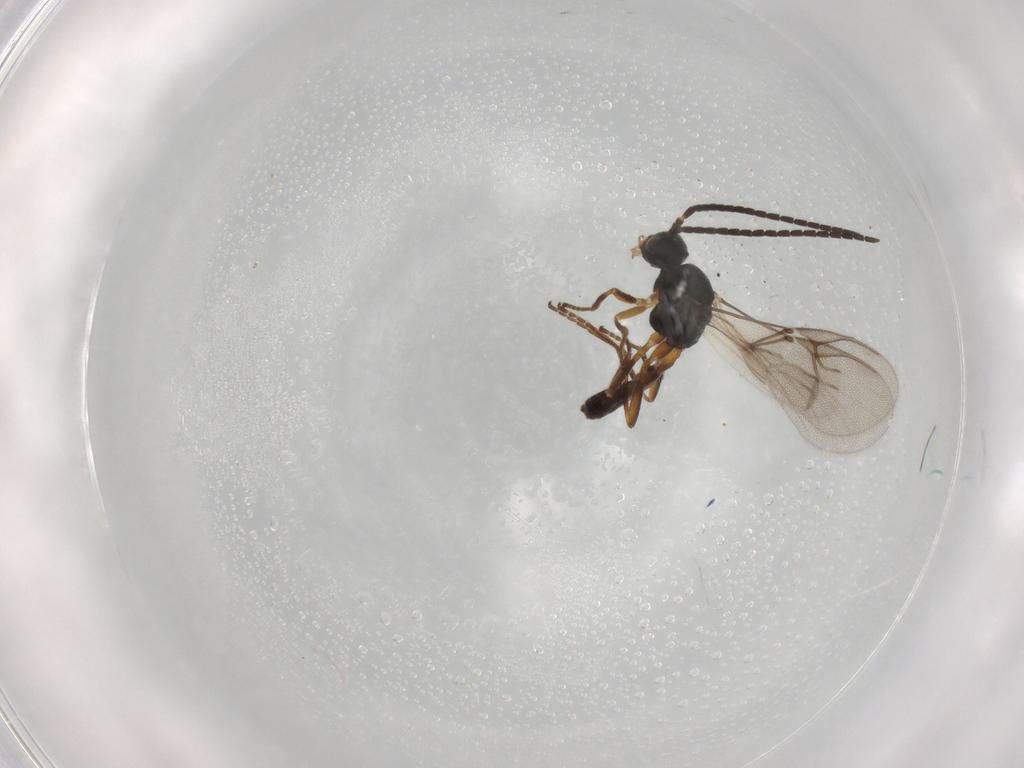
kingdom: Animalia
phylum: Arthropoda
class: Insecta
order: Hymenoptera
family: Braconidae
